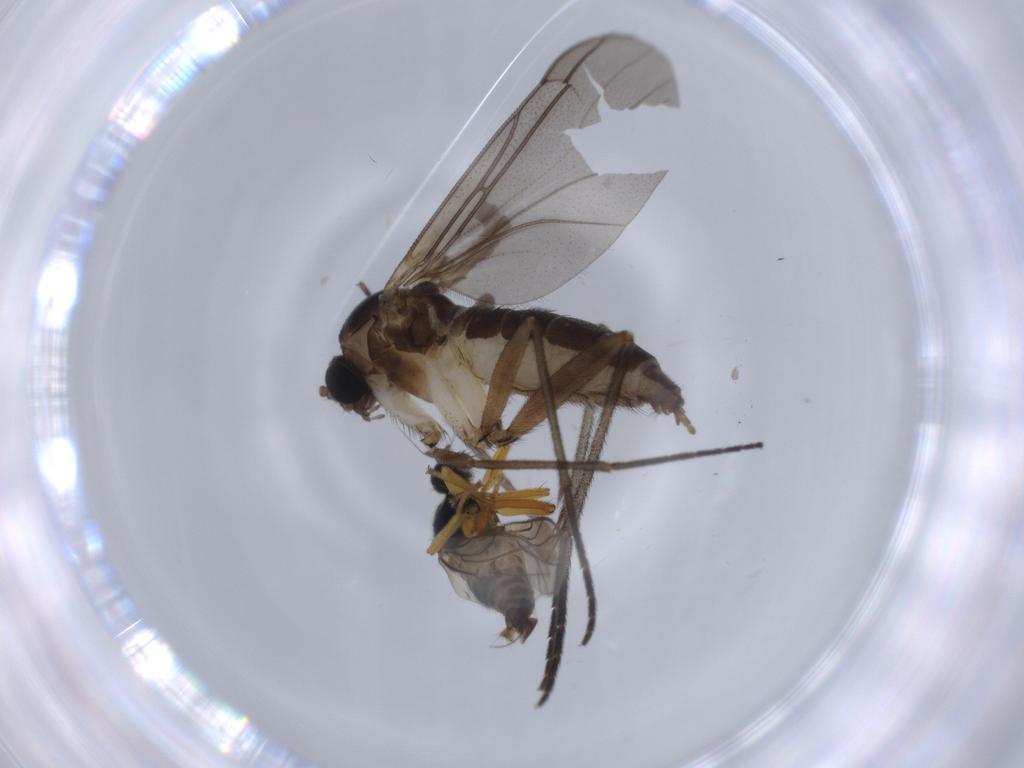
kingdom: Animalia
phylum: Arthropoda
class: Insecta
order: Diptera
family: Sciaridae
